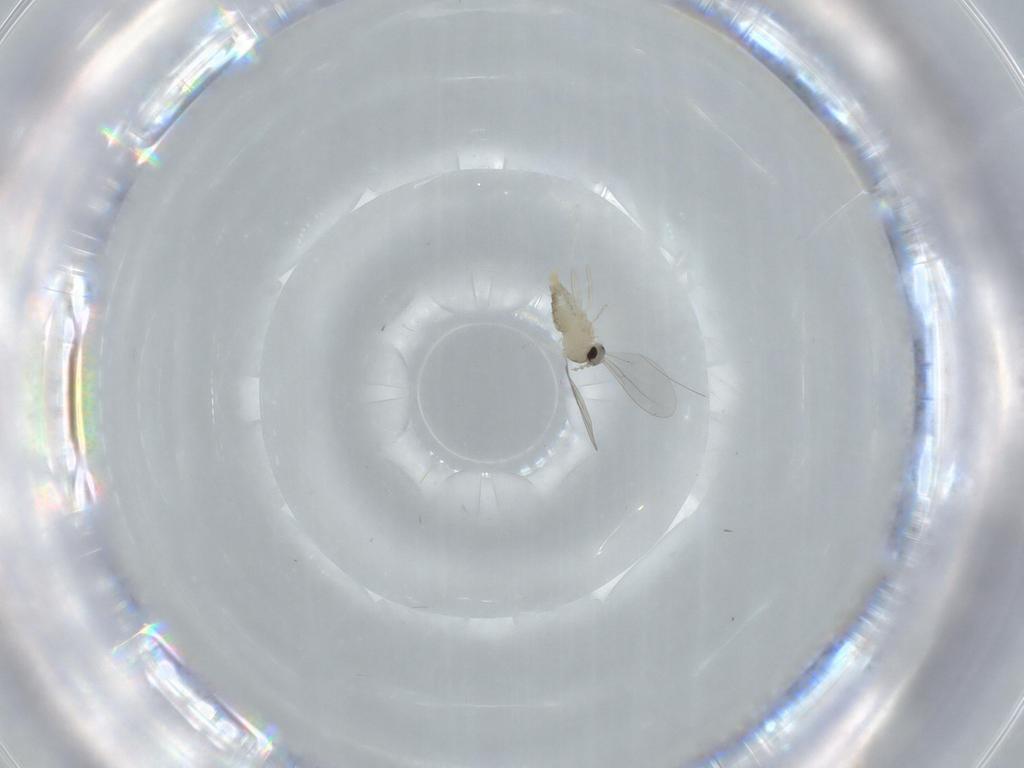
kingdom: Animalia
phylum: Arthropoda
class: Insecta
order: Diptera
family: Cecidomyiidae
